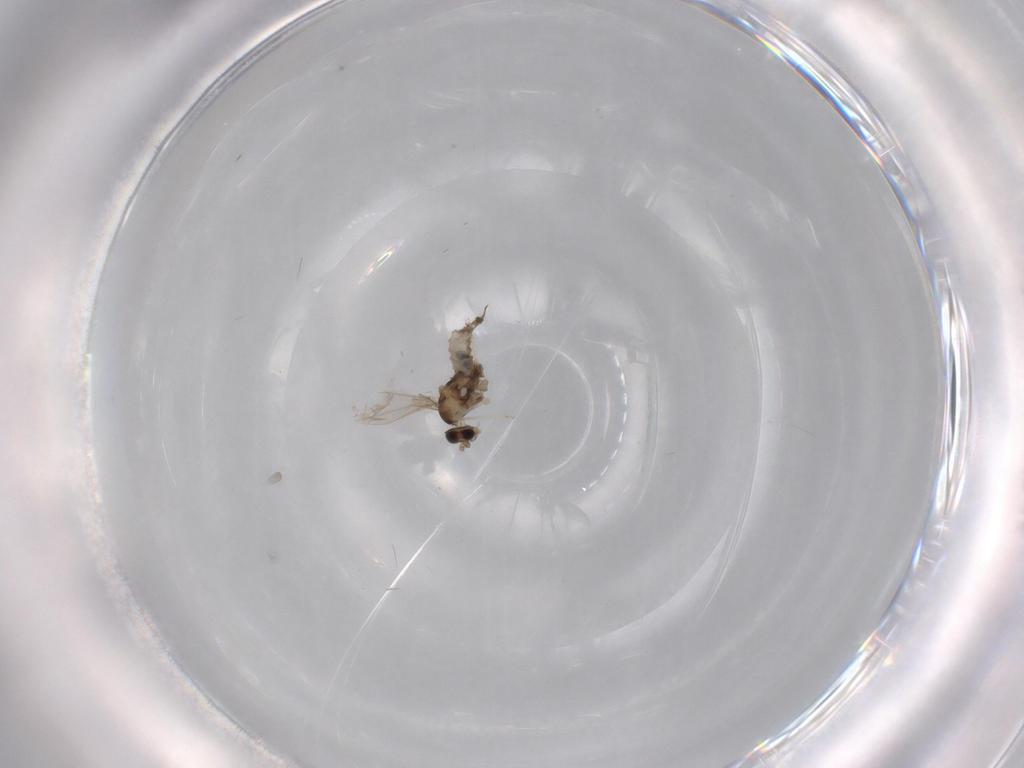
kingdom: Animalia
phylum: Arthropoda
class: Insecta
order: Diptera
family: Cecidomyiidae
